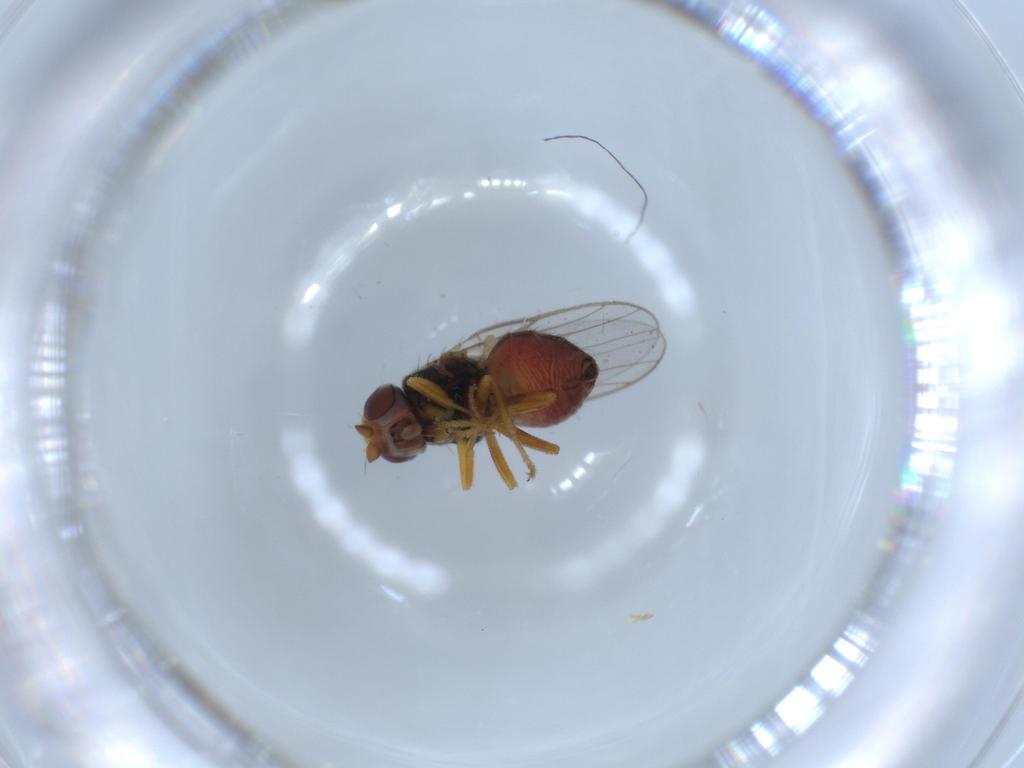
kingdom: Animalia
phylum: Arthropoda
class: Insecta
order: Diptera
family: Chloropidae
